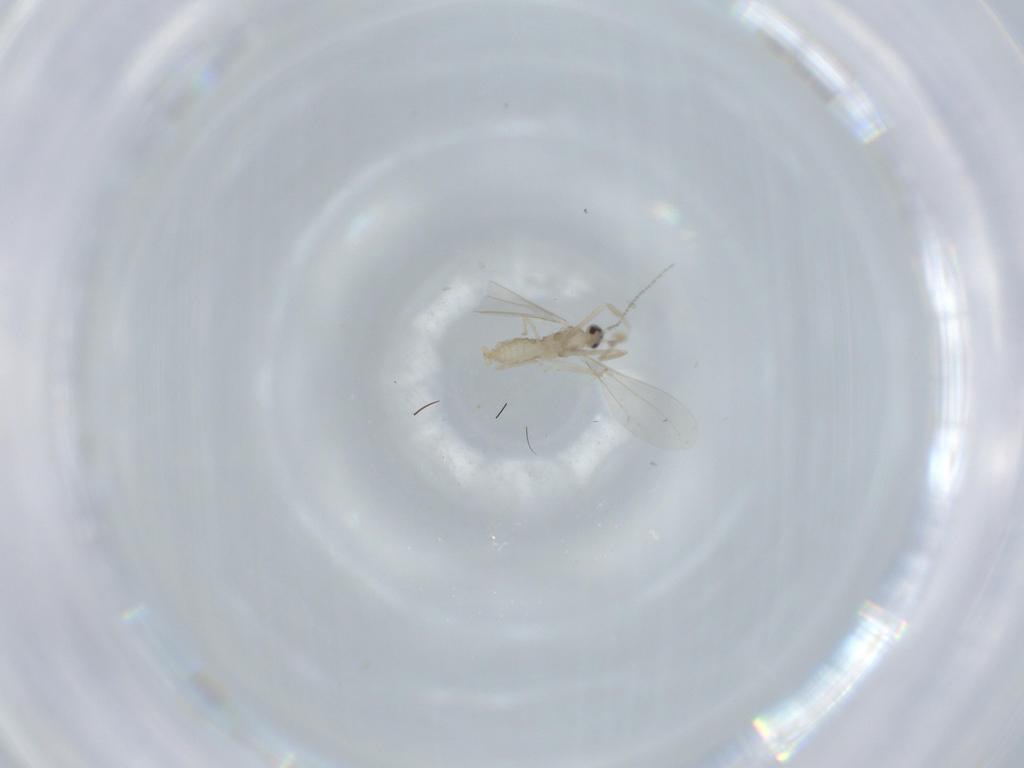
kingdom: Animalia
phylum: Arthropoda
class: Insecta
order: Diptera
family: Cecidomyiidae
